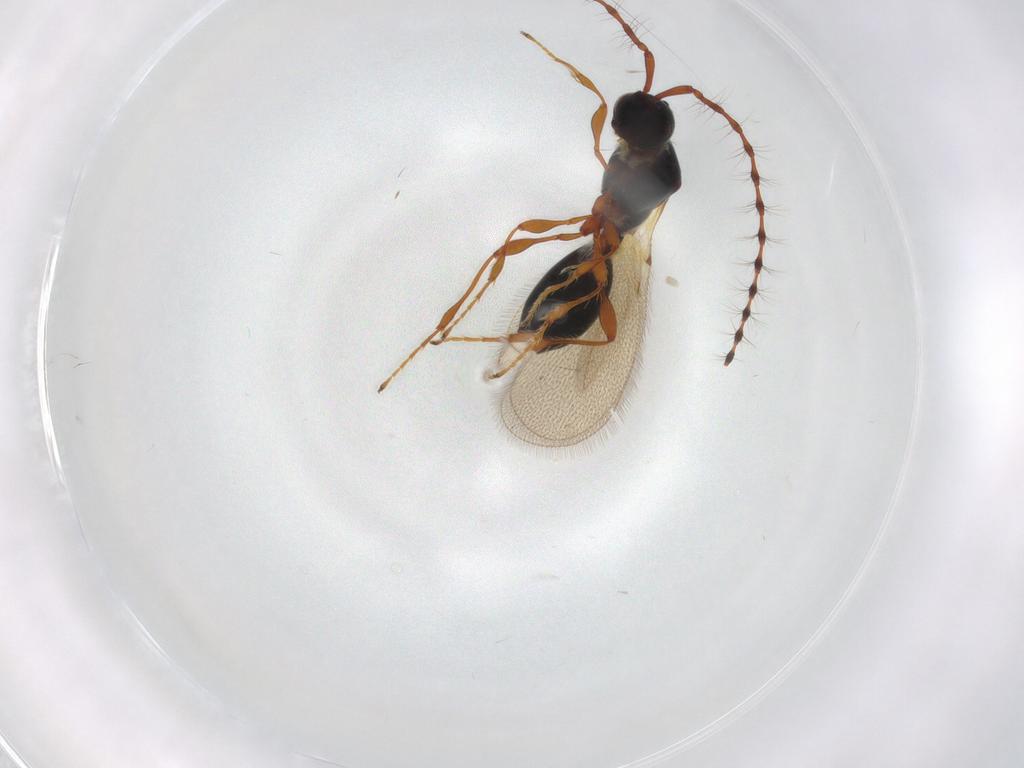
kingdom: Animalia
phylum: Arthropoda
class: Insecta
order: Hymenoptera
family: Diapriidae
